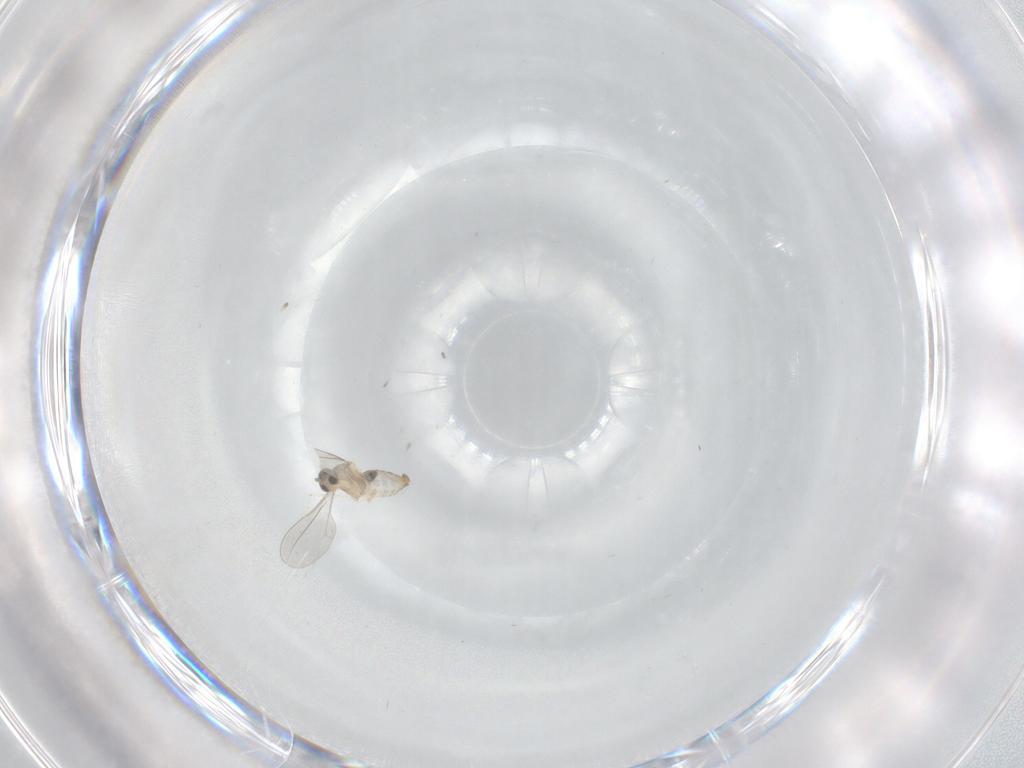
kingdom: Animalia
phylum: Arthropoda
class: Insecta
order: Diptera
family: Cecidomyiidae
